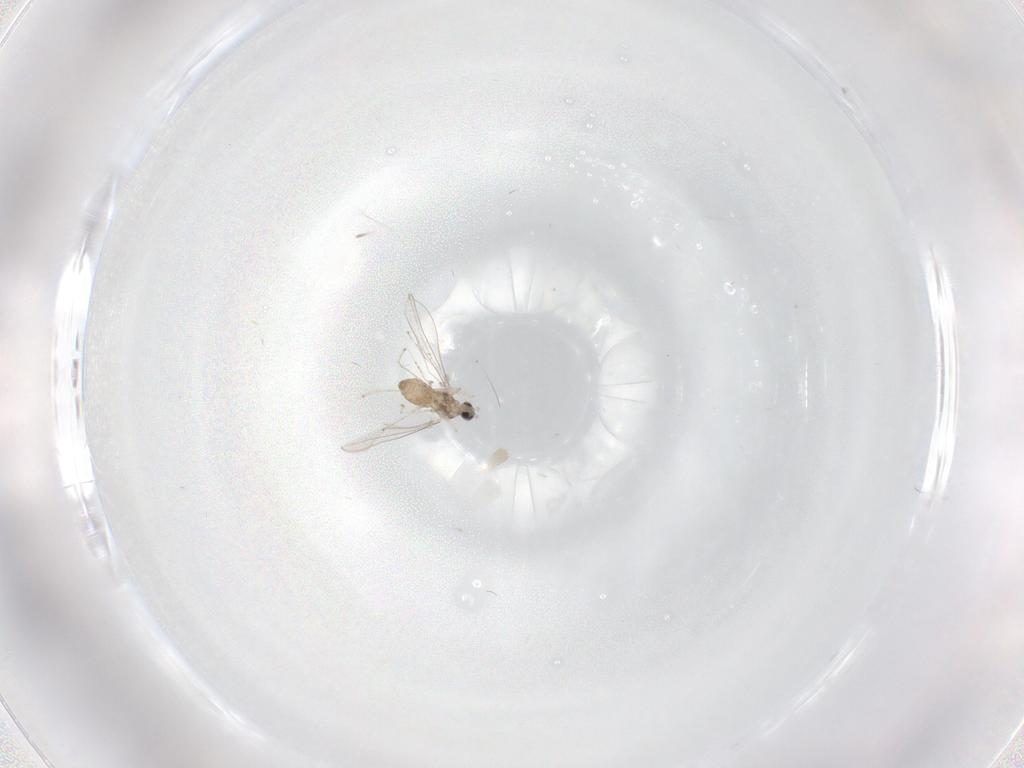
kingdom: Animalia
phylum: Arthropoda
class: Insecta
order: Diptera
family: Cecidomyiidae
